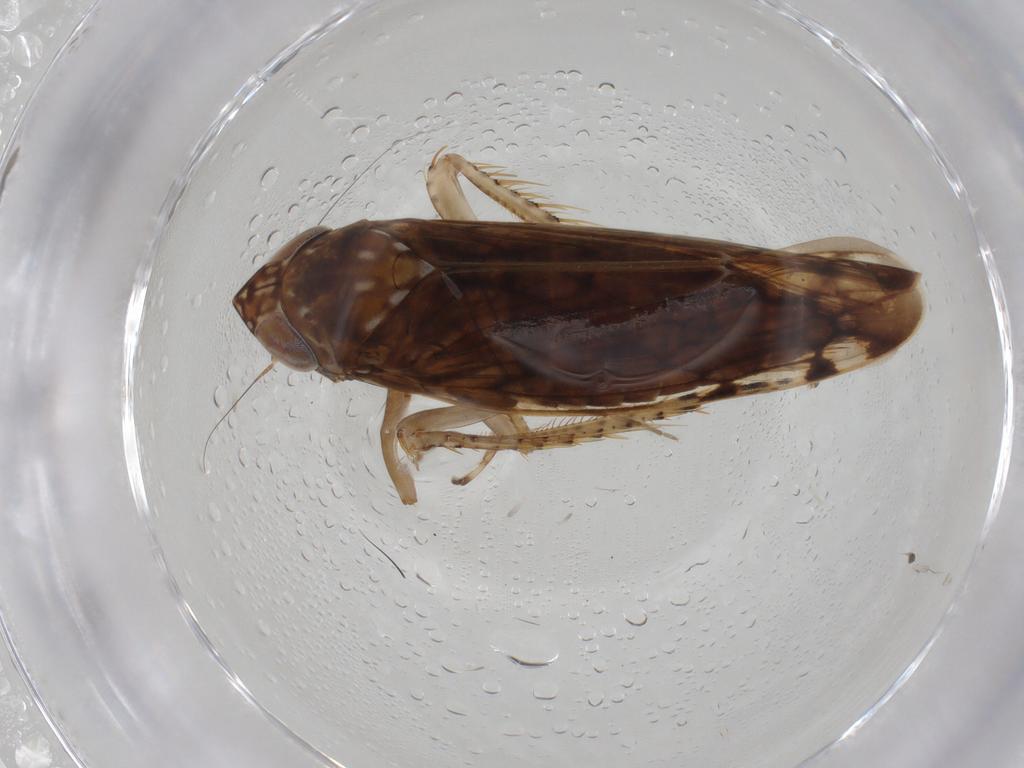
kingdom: Animalia
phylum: Arthropoda
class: Insecta
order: Hemiptera
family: Cicadellidae
